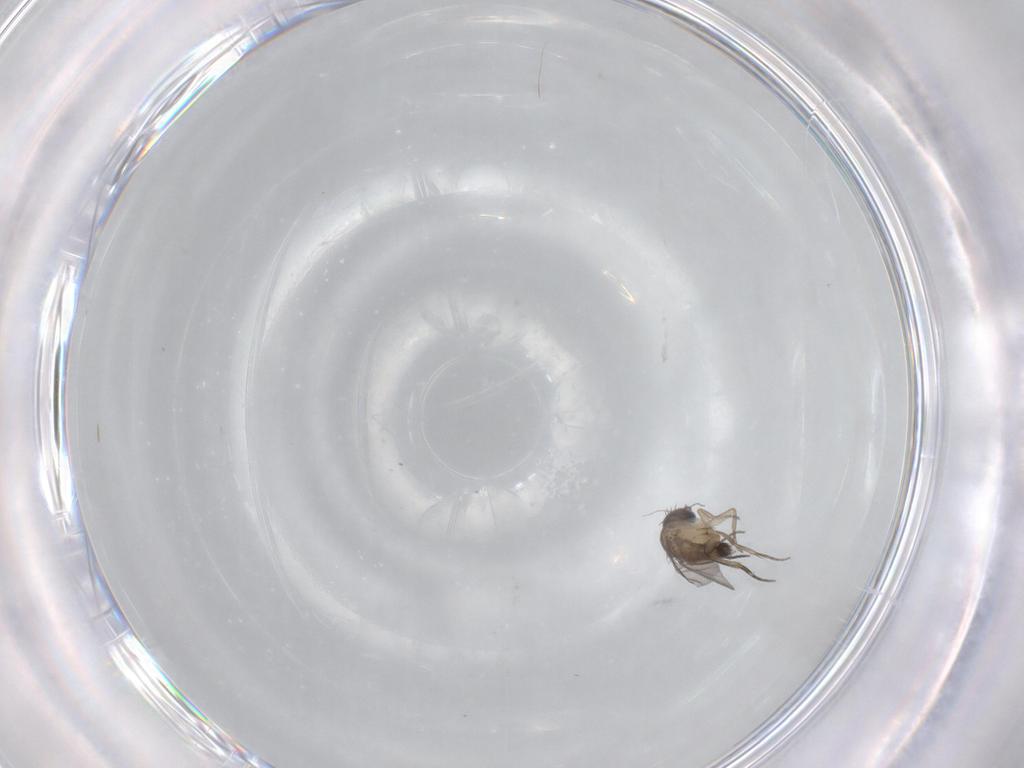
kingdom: Animalia
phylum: Arthropoda
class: Insecta
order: Diptera
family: Phoridae
